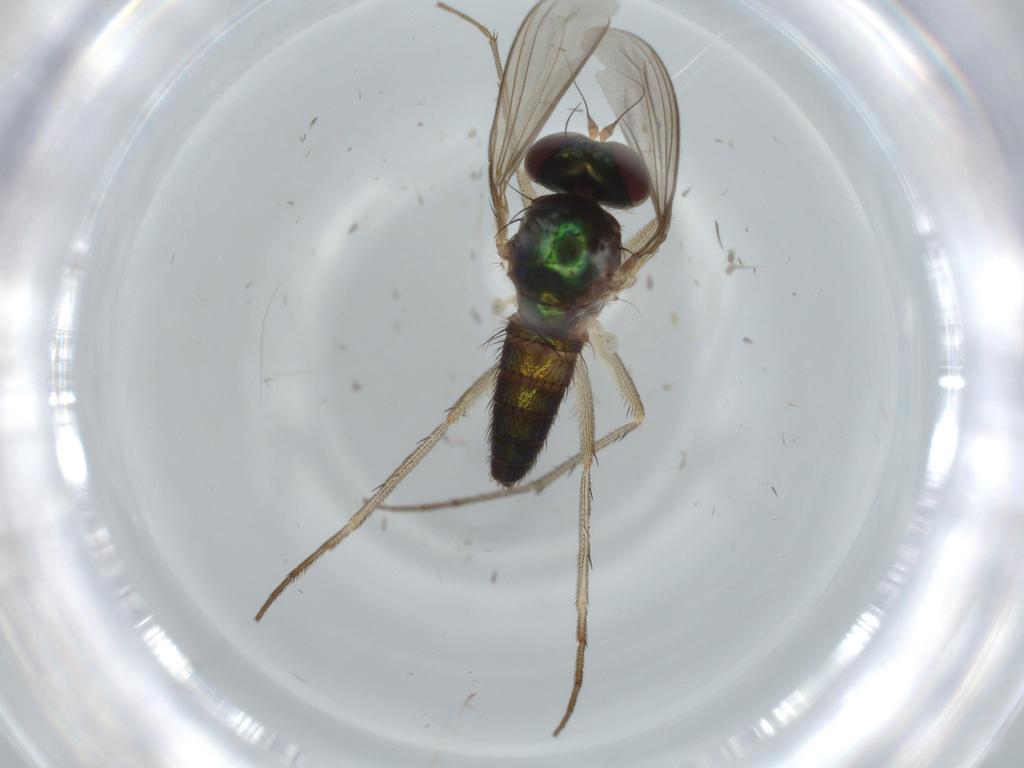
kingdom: Animalia
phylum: Arthropoda
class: Insecta
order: Diptera
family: Dolichopodidae
